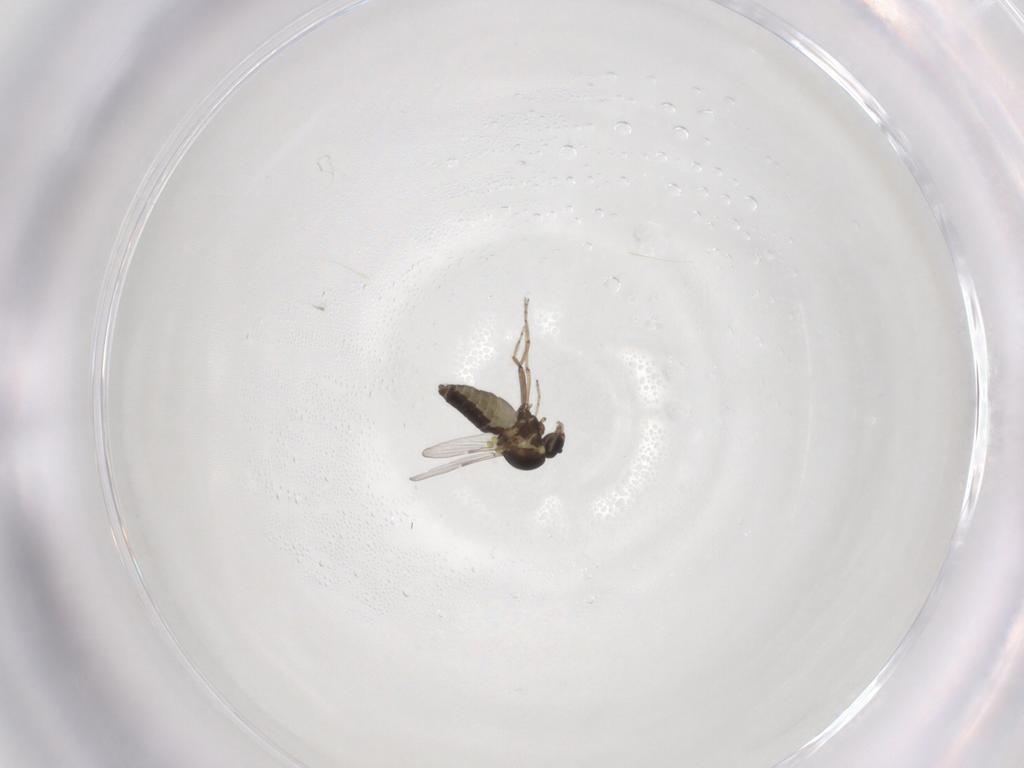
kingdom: Animalia
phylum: Arthropoda
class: Insecta
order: Diptera
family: Ceratopogonidae
